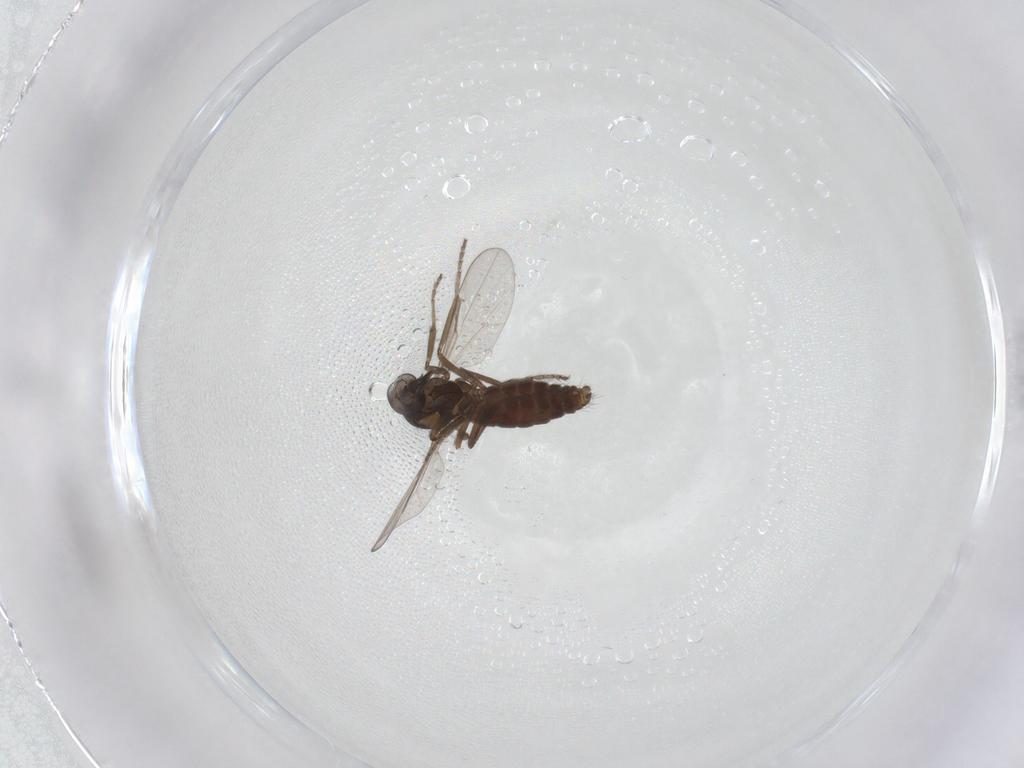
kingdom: Animalia
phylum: Arthropoda
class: Insecta
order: Diptera
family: Ceratopogonidae
